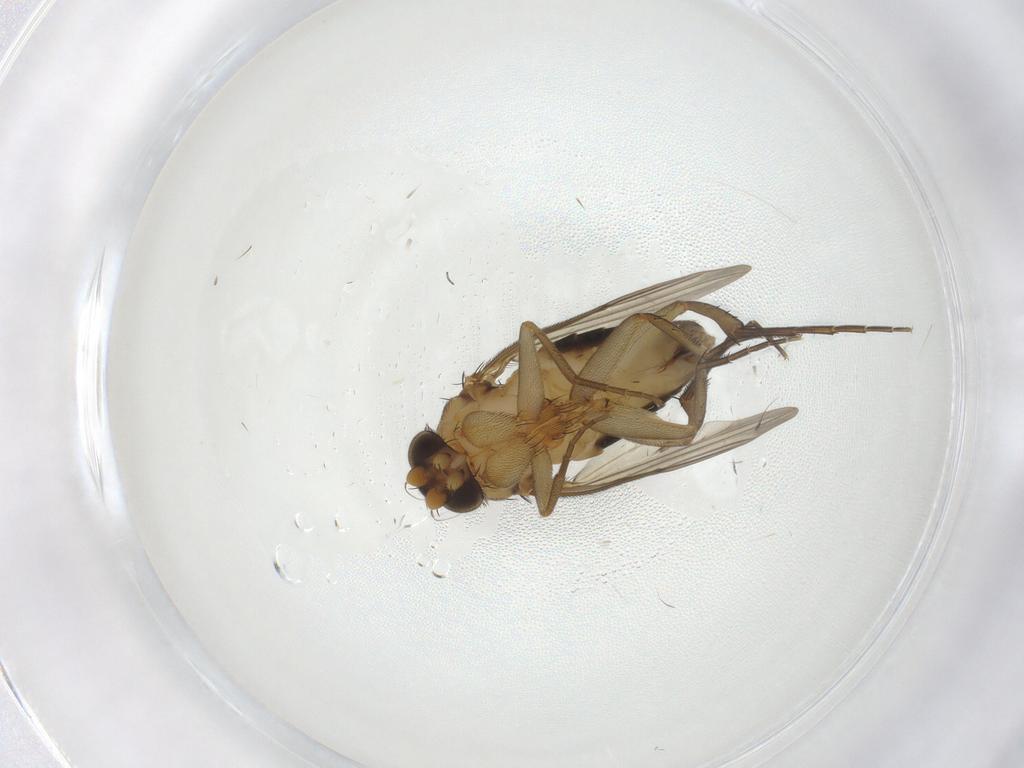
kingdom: Animalia
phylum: Arthropoda
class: Insecta
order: Diptera
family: Phoridae
